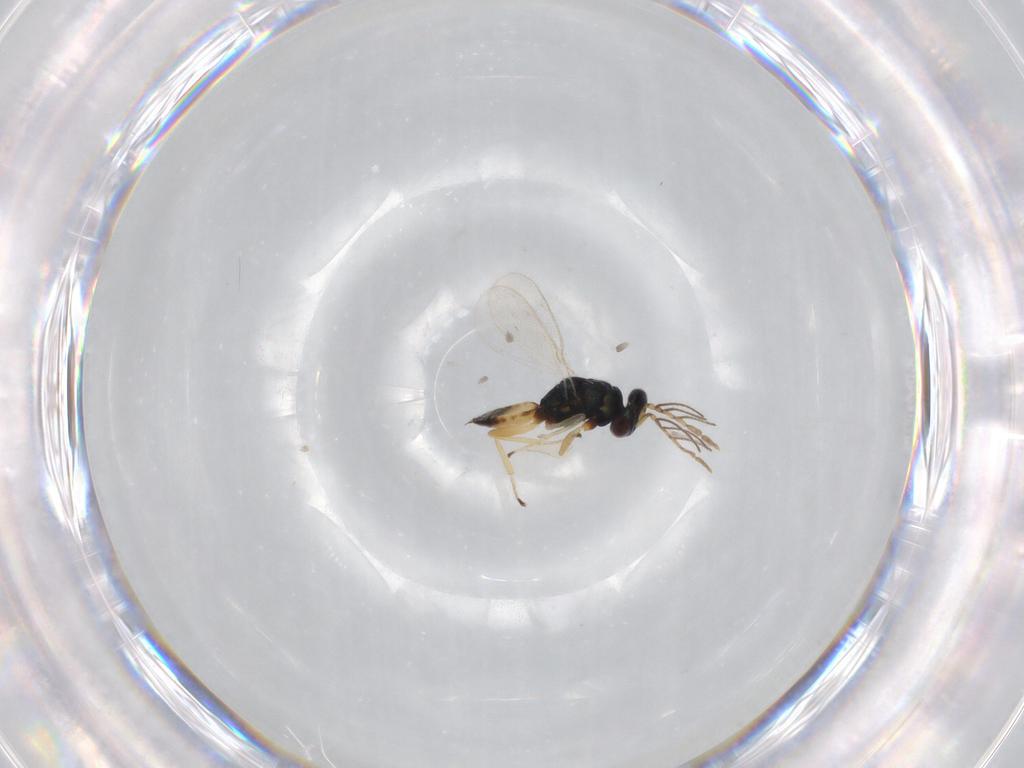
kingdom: Animalia
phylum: Arthropoda
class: Insecta
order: Hymenoptera
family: Eulophidae
